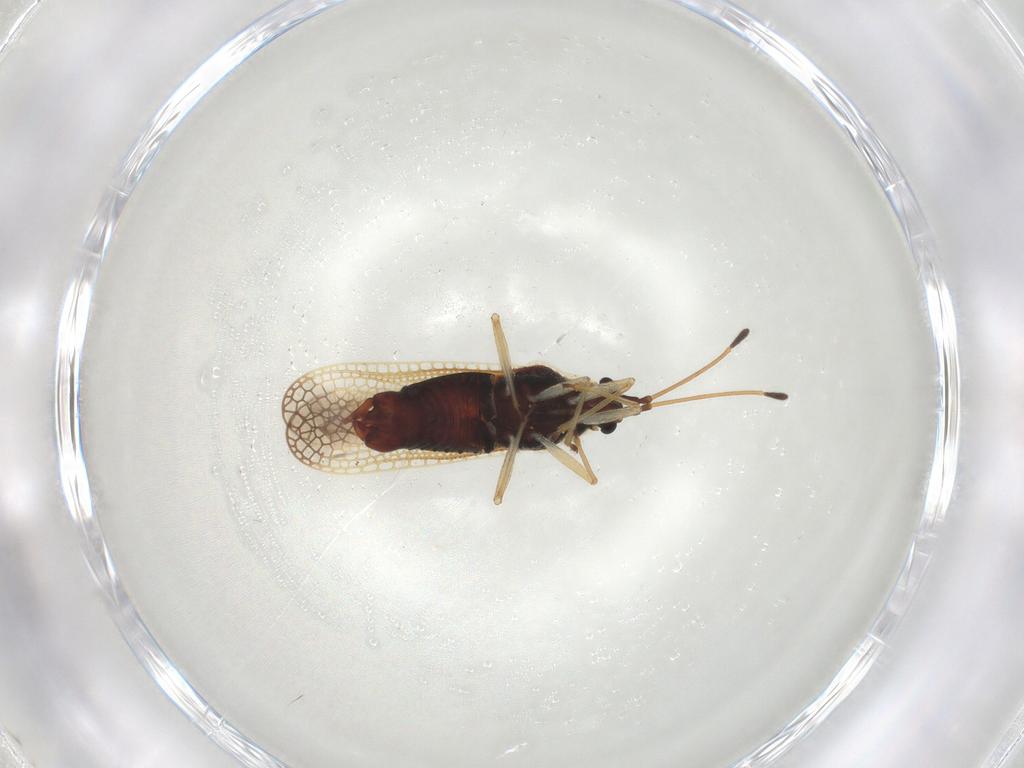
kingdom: Animalia
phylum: Arthropoda
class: Insecta
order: Hemiptera
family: Tingidae
